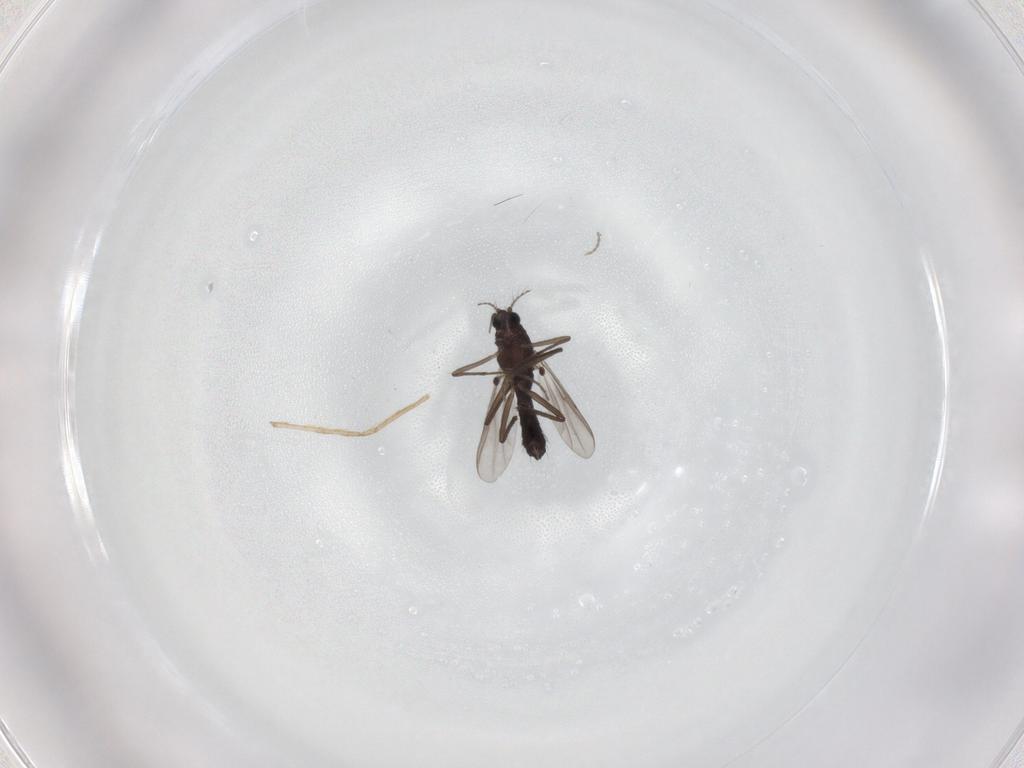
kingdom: Animalia
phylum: Arthropoda
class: Insecta
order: Diptera
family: Chironomidae
